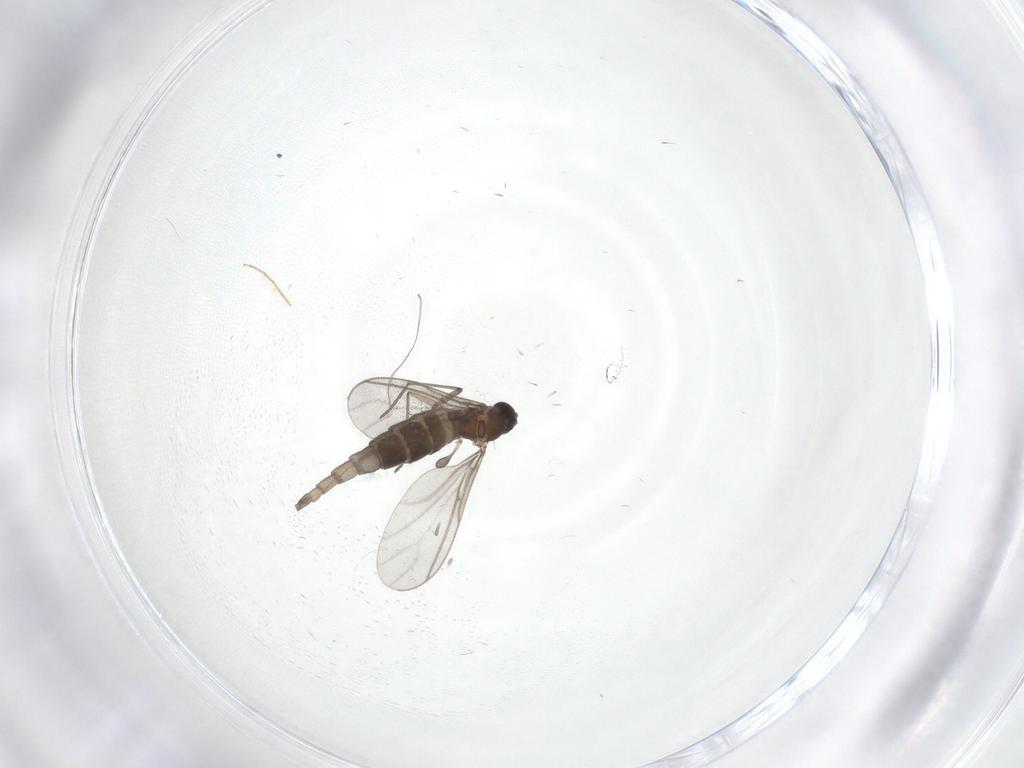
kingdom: Animalia
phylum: Arthropoda
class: Insecta
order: Diptera
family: Sciaridae
